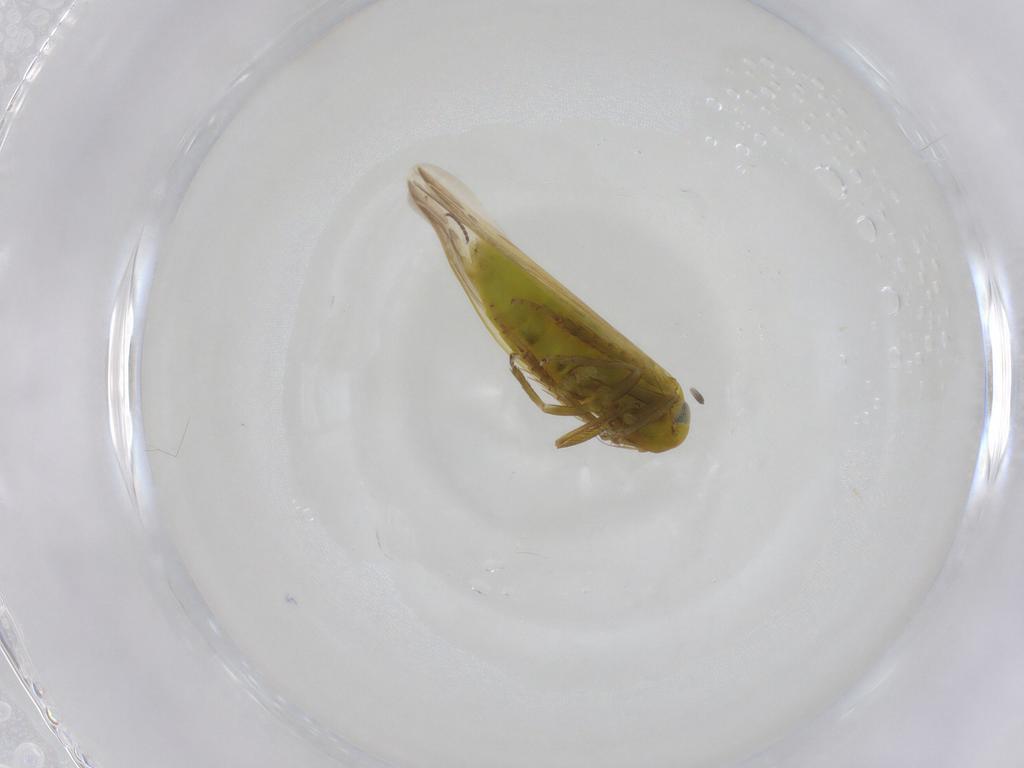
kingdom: Animalia
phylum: Arthropoda
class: Insecta
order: Hemiptera
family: Cicadellidae
